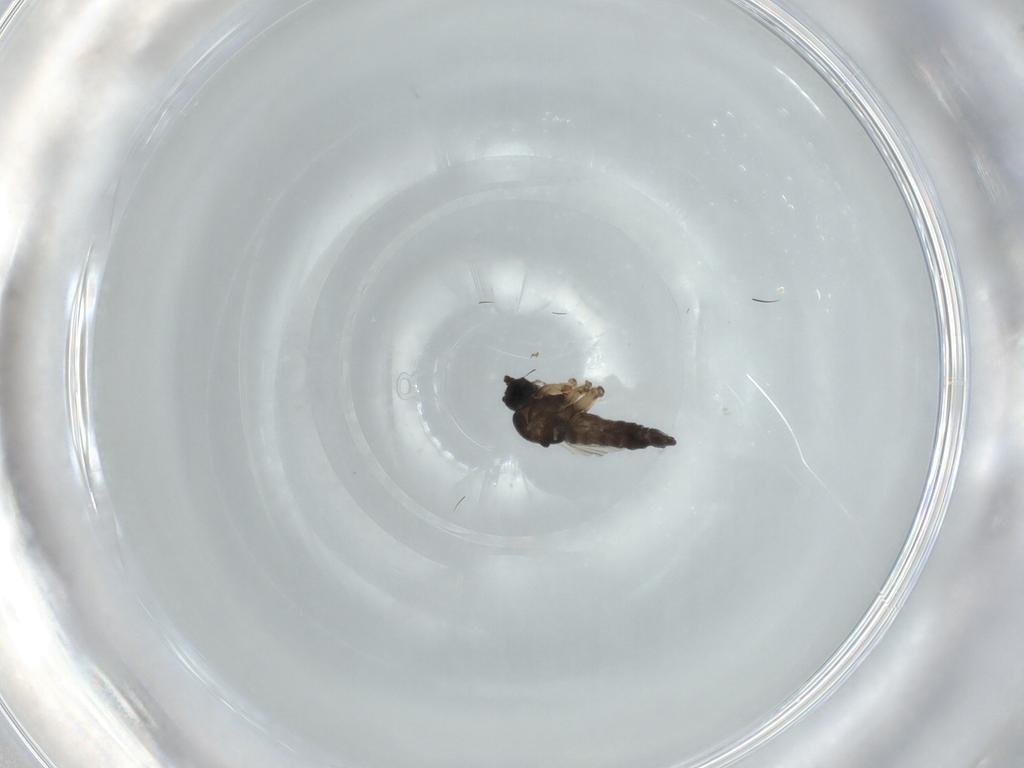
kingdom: Animalia
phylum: Arthropoda
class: Insecta
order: Diptera
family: Sciaridae
